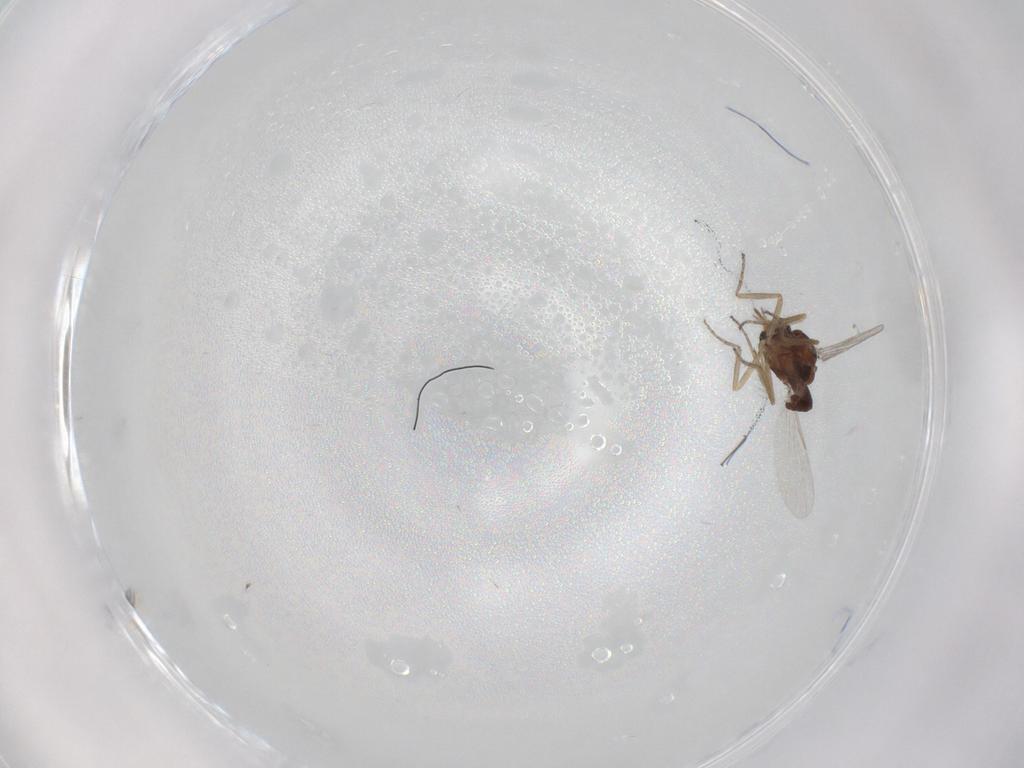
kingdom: Animalia
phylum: Arthropoda
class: Insecta
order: Diptera
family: Ceratopogonidae
